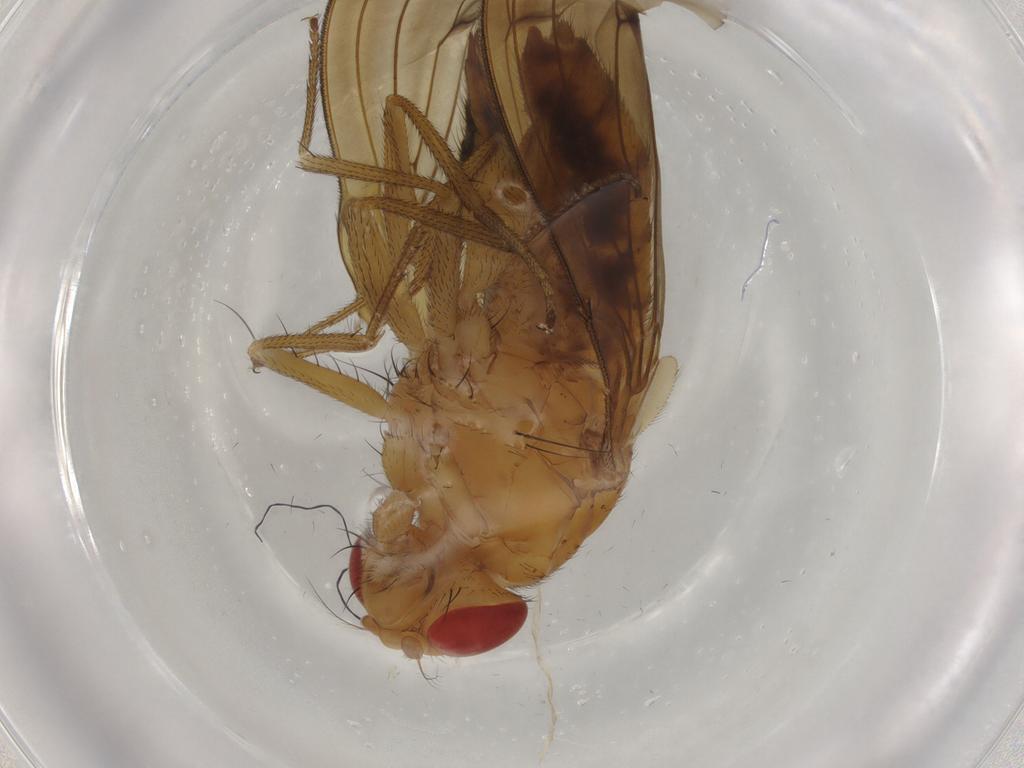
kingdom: Animalia
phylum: Arthropoda
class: Insecta
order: Diptera
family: Drosophilidae
